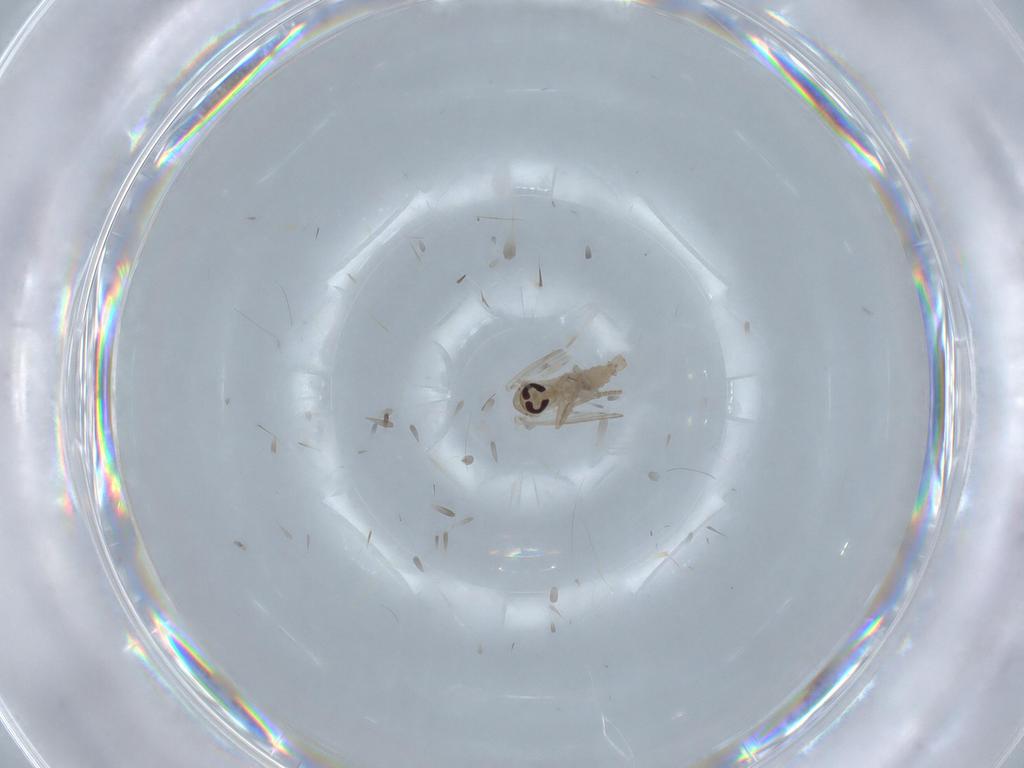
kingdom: Animalia
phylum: Arthropoda
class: Insecta
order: Diptera
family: Psychodidae
